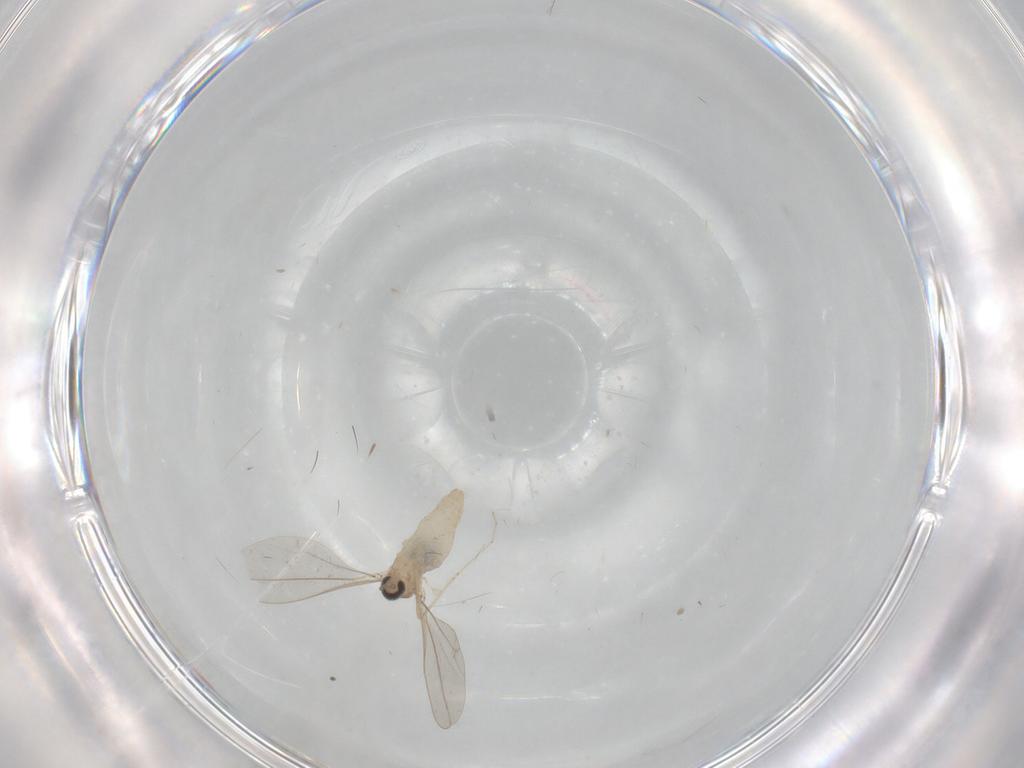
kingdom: Animalia
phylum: Arthropoda
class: Insecta
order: Diptera
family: Cecidomyiidae
